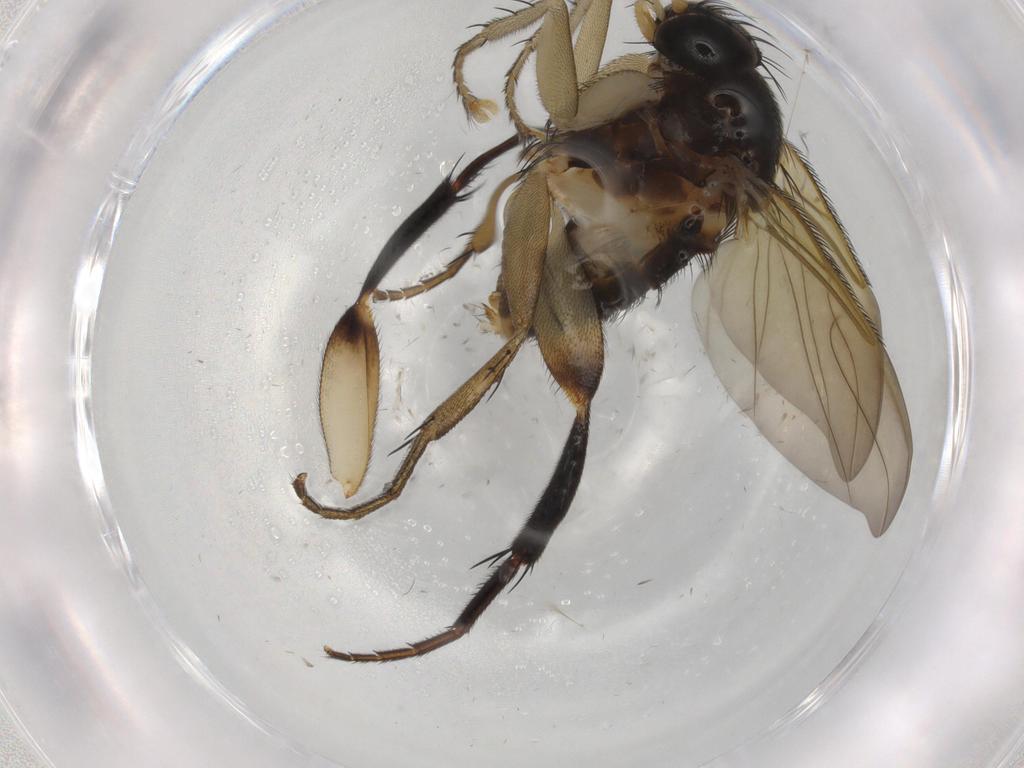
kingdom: Animalia
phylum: Arthropoda
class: Insecta
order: Diptera
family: Phoridae
